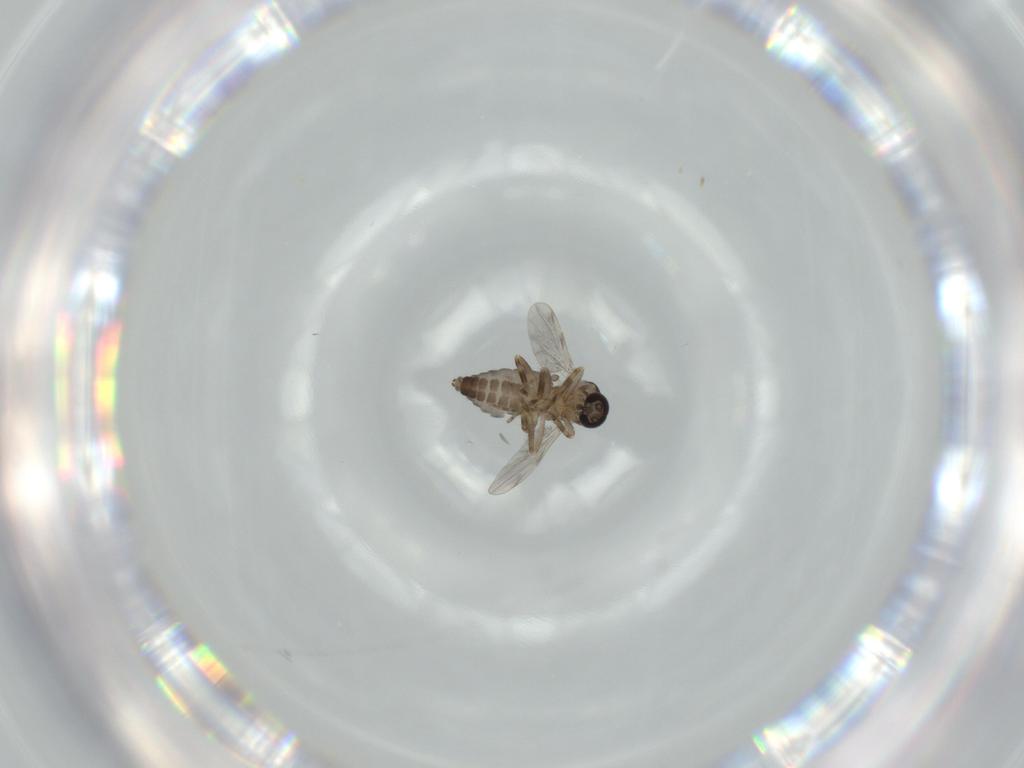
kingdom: Animalia
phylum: Arthropoda
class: Insecta
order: Diptera
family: Ceratopogonidae
